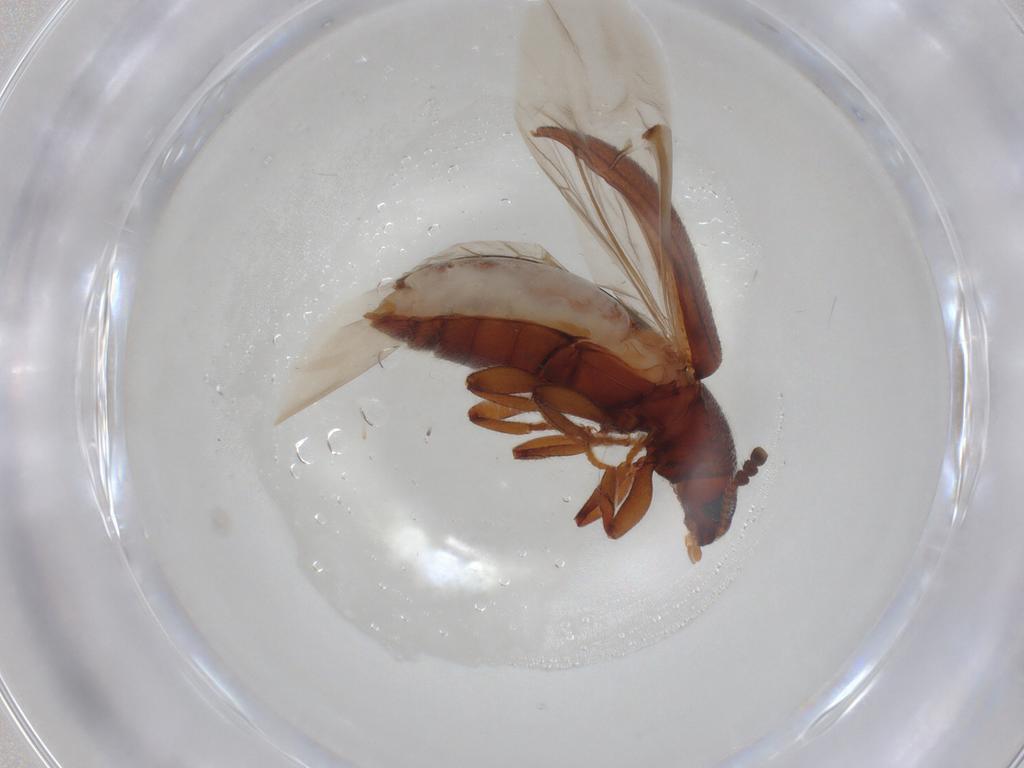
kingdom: Animalia
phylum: Arthropoda
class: Insecta
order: Coleoptera
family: Tenebrionidae
